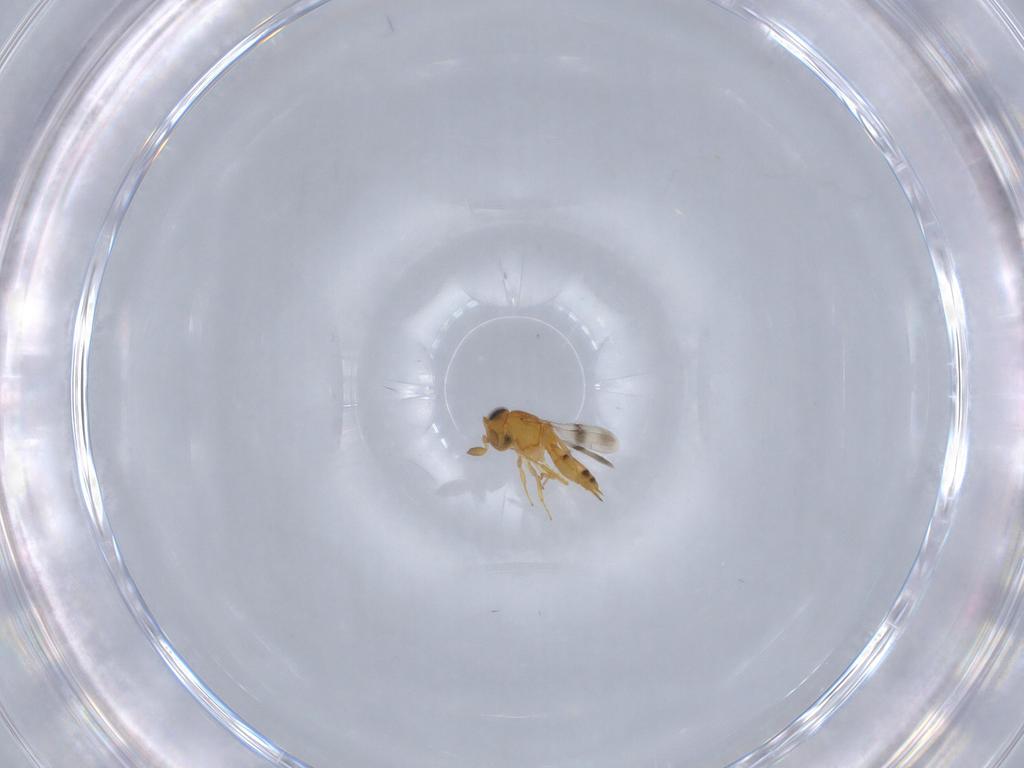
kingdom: Animalia
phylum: Arthropoda
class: Insecta
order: Hymenoptera
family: Scelionidae
